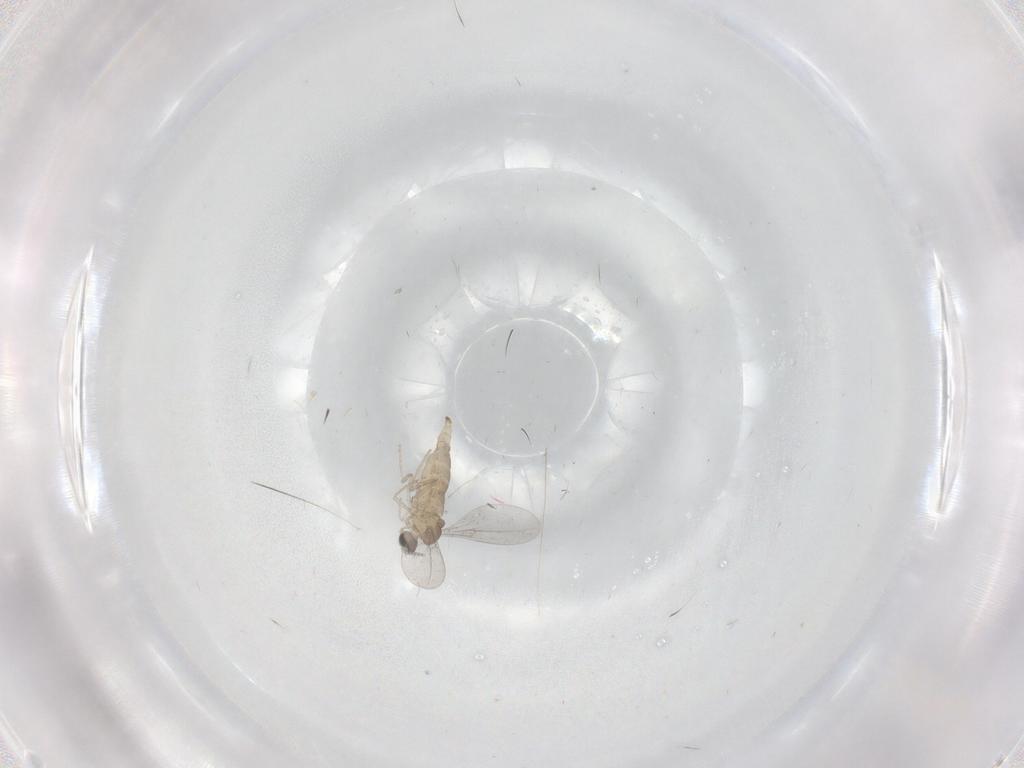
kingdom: Animalia
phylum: Arthropoda
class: Insecta
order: Diptera
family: Cecidomyiidae
